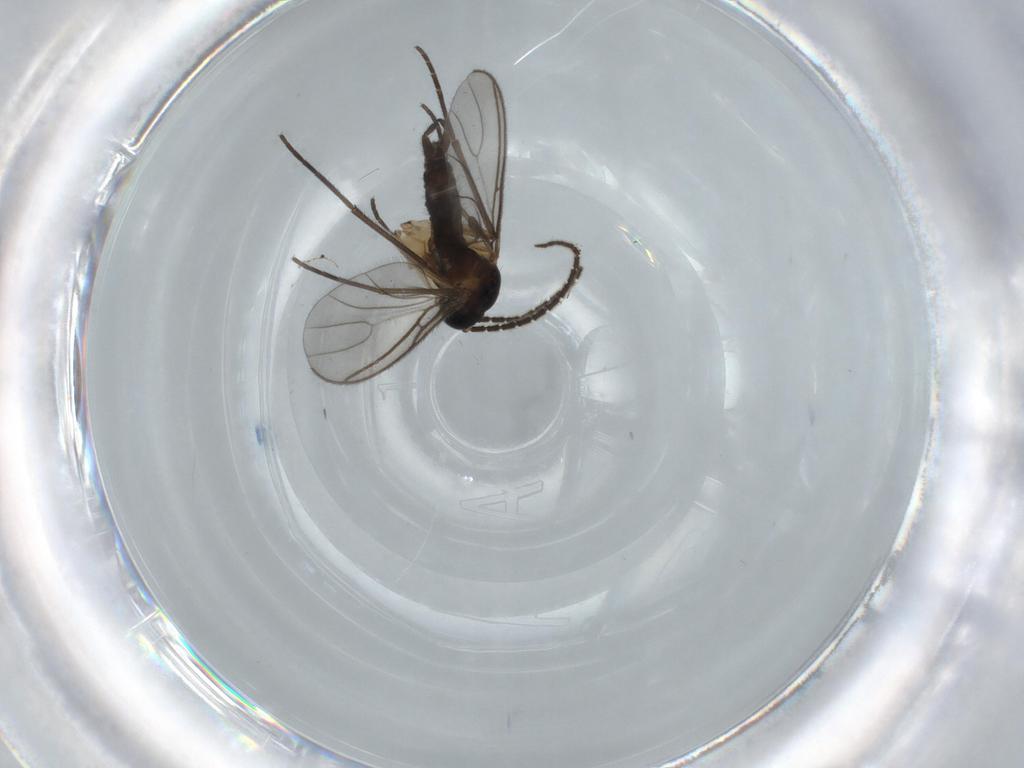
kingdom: Animalia
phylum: Arthropoda
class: Insecta
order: Diptera
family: Sciaridae
